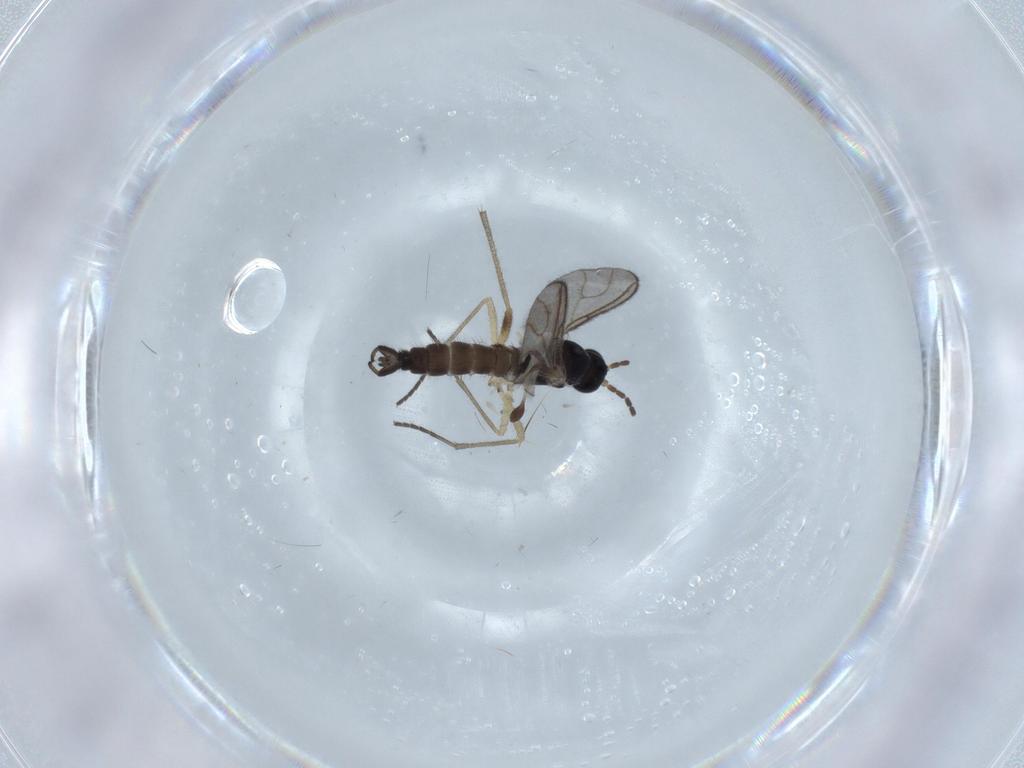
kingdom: Animalia
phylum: Arthropoda
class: Insecta
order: Diptera
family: Sciaridae
